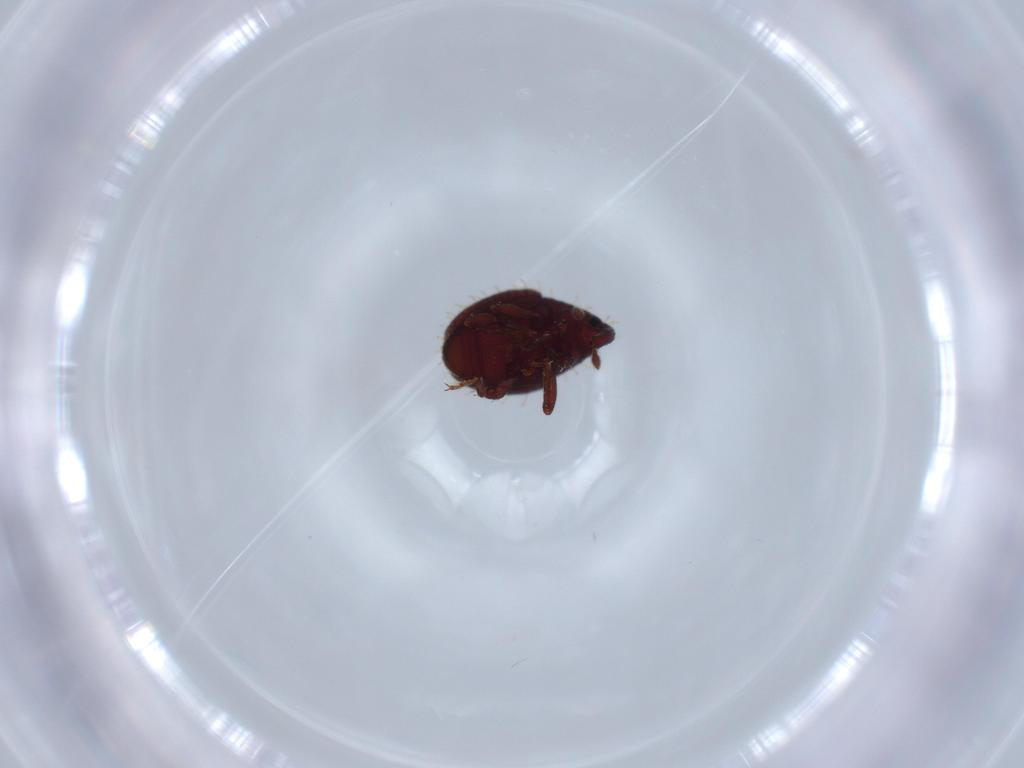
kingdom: Animalia
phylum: Arthropoda
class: Insecta
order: Coleoptera
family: Curculionidae
